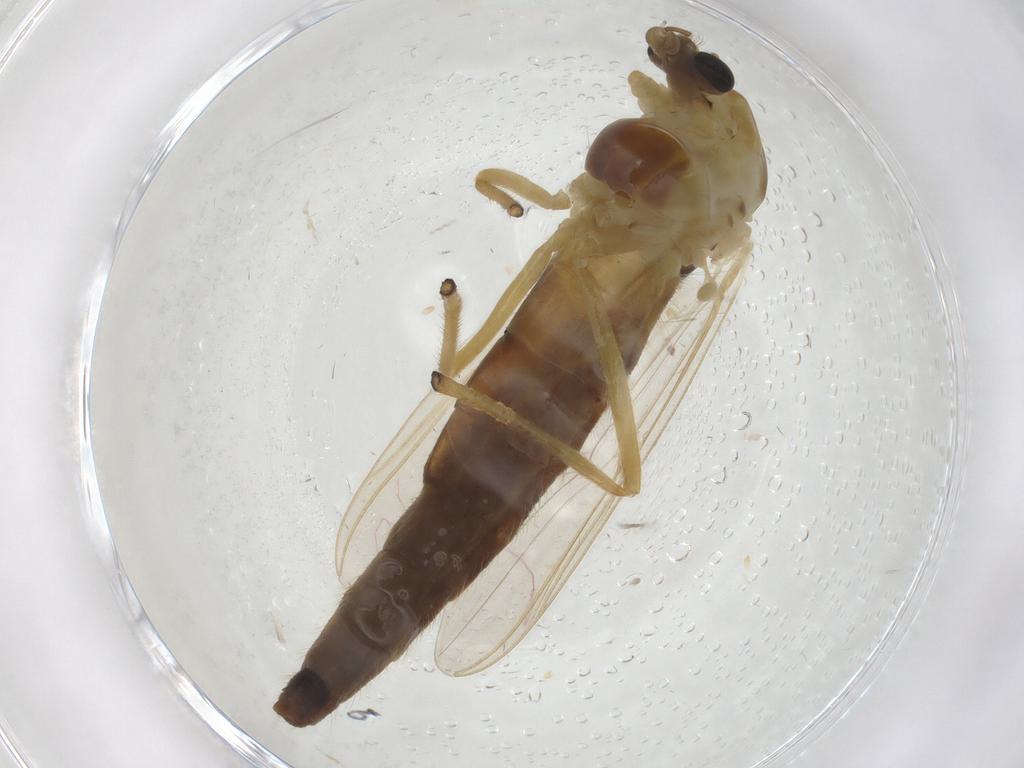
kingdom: Animalia
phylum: Arthropoda
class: Insecta
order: Diptera
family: Chironomidae
